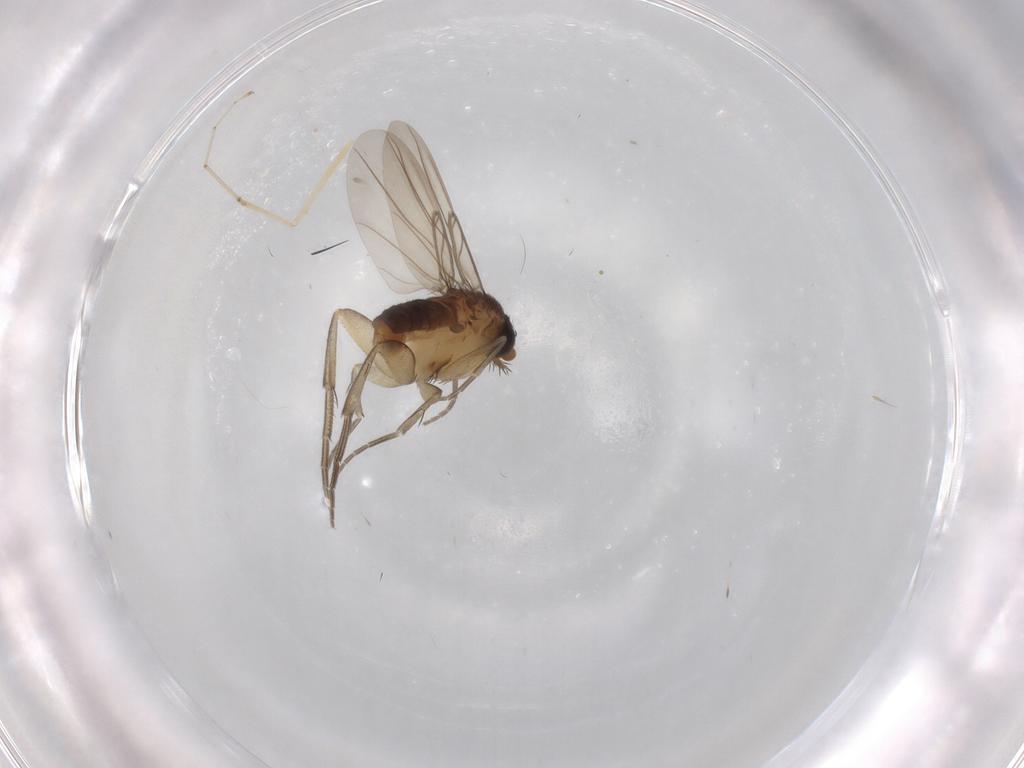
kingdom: Animalia
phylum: Arthropoda
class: Insecta
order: Diptera
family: Cecidomyiidae
